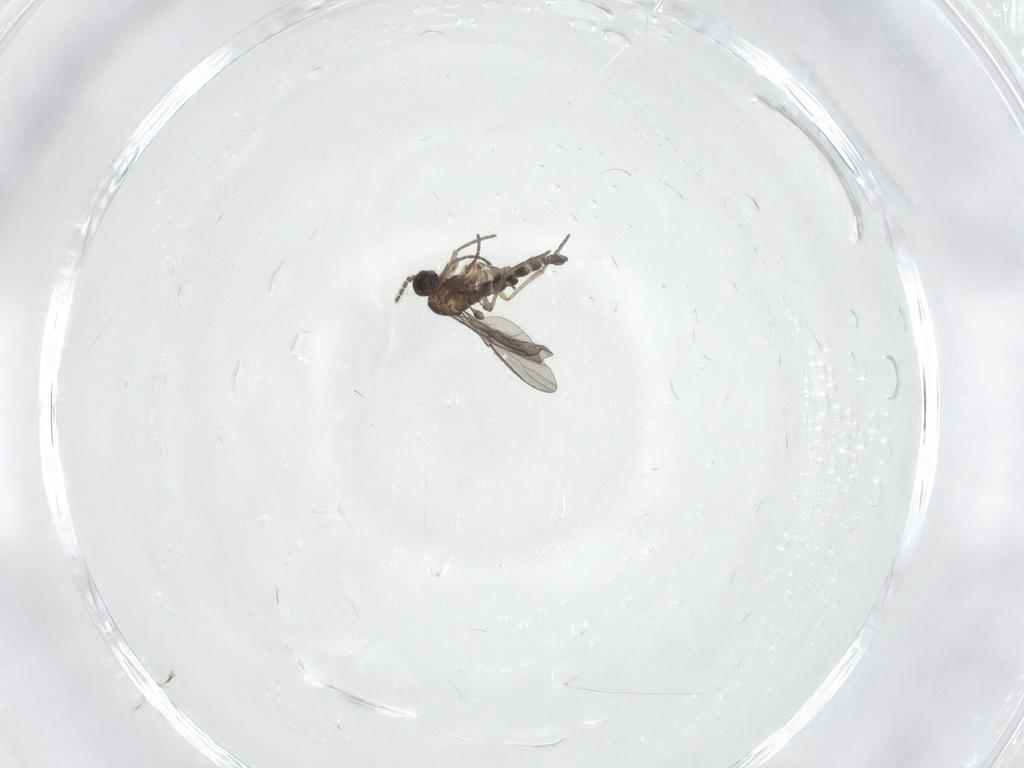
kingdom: Animalia
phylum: Arthropoda
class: Insecta
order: Diptera
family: Sciaridae
